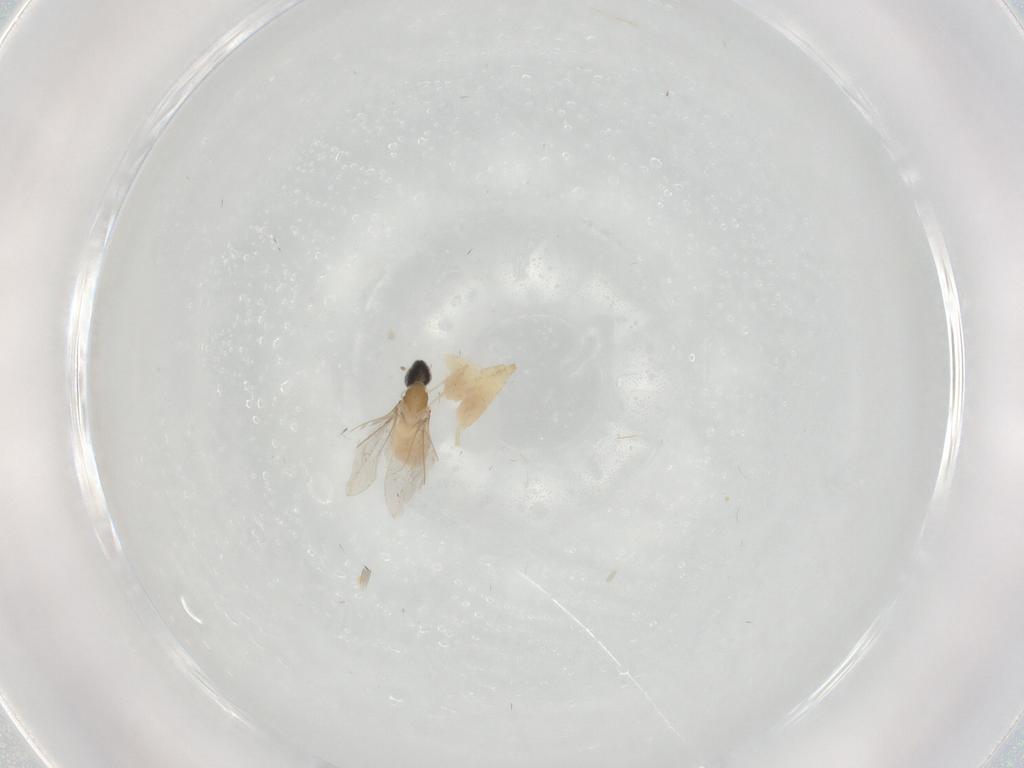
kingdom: Animalia
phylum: Arthropoda
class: Insecta
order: Diptera
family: Cecidomyiidae
